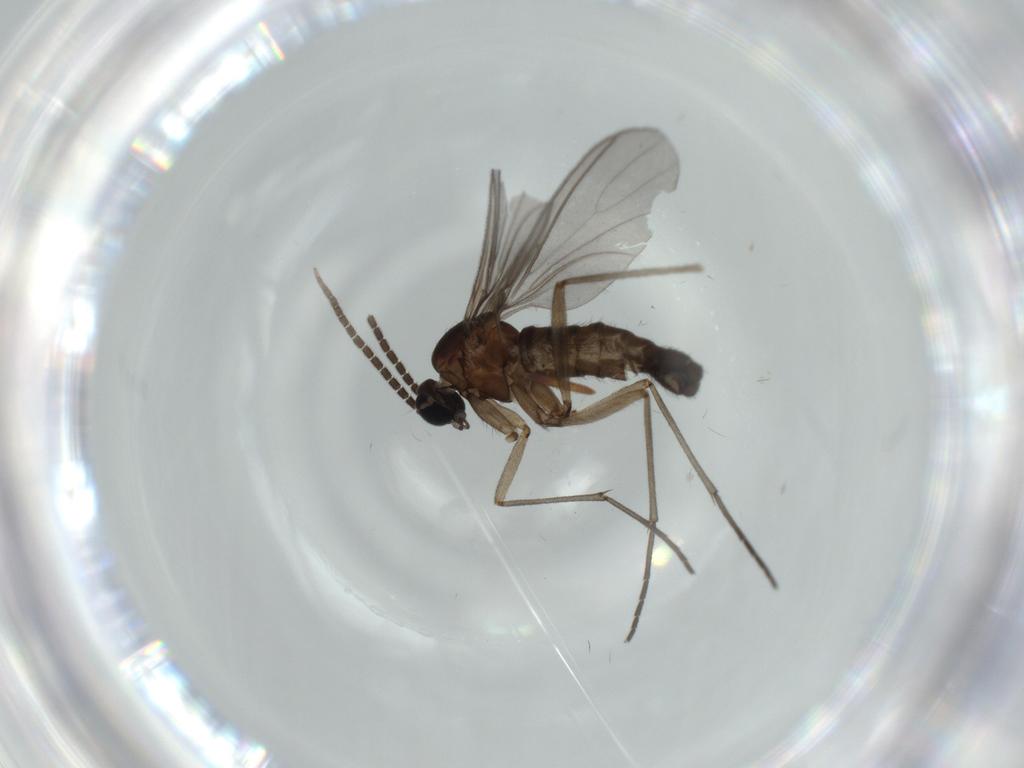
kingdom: Animalia
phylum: Arthropoda
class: Insecta
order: Diptera
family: Sciaridae
